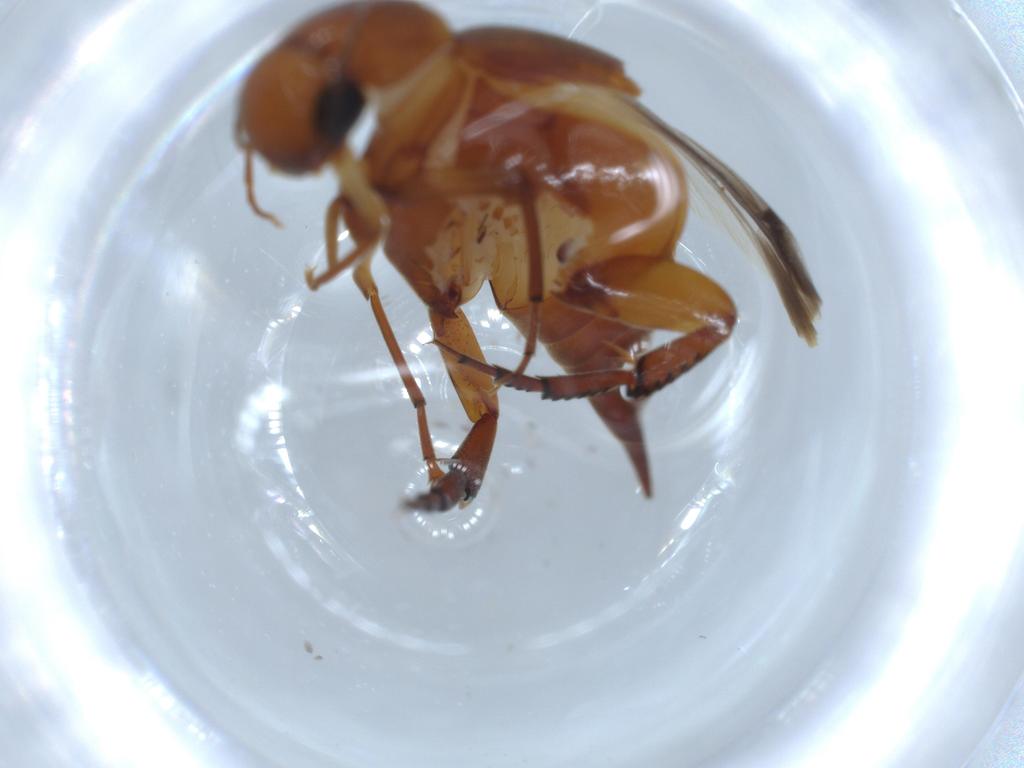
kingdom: Animalia
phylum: Arthropoda
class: Insecta
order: Coleoptera
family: Mordellidae
